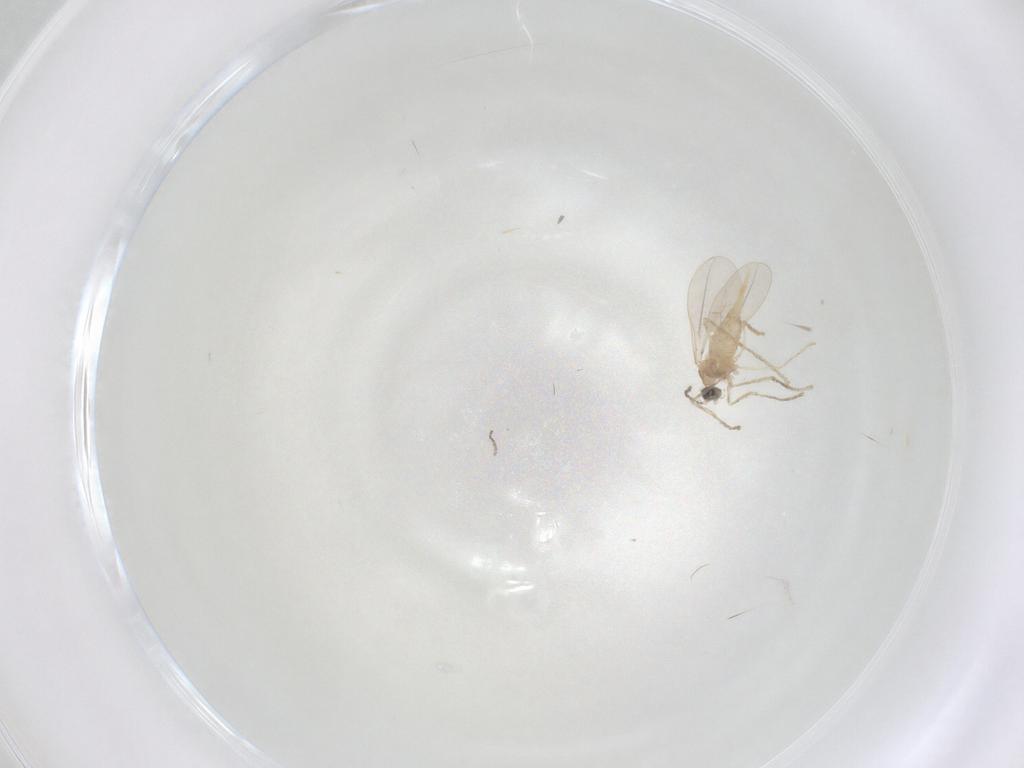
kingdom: Animalia
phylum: Arthropoda
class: Insecta
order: Diptera
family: Cecidomyiidae
